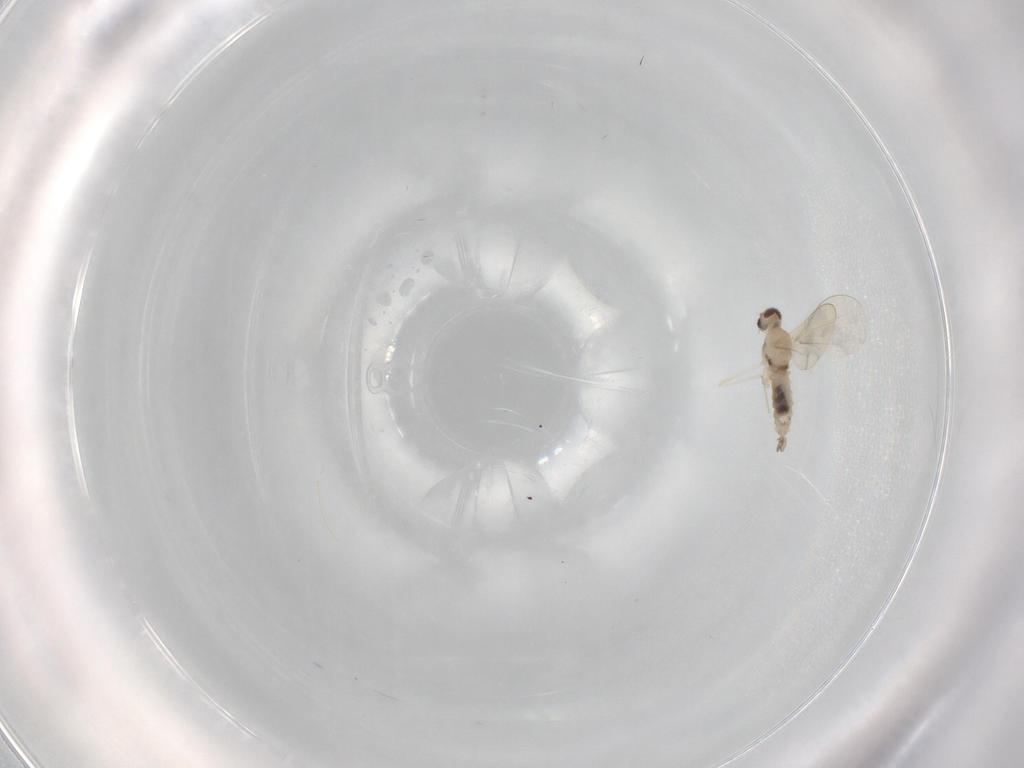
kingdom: Animalia
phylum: Arthropoda
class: Insecta
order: Diptera
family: Cecidomyiidae
